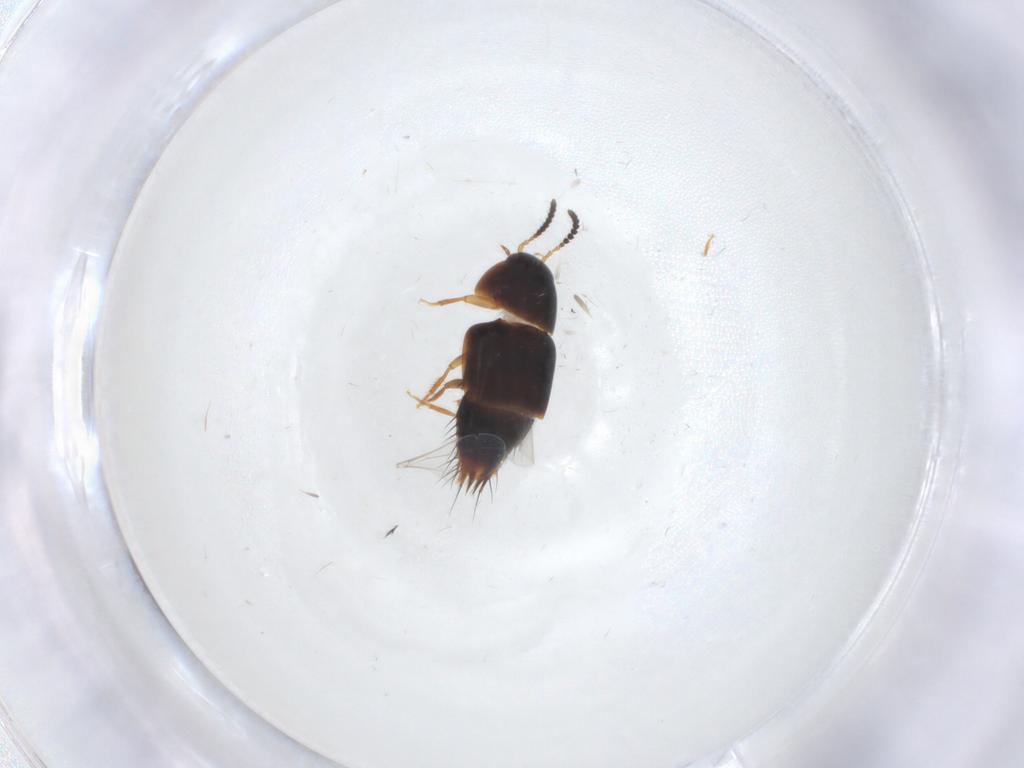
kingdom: Animalia
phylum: Arthropoda
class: Insecta
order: Coleoptera
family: Staphylinidae
